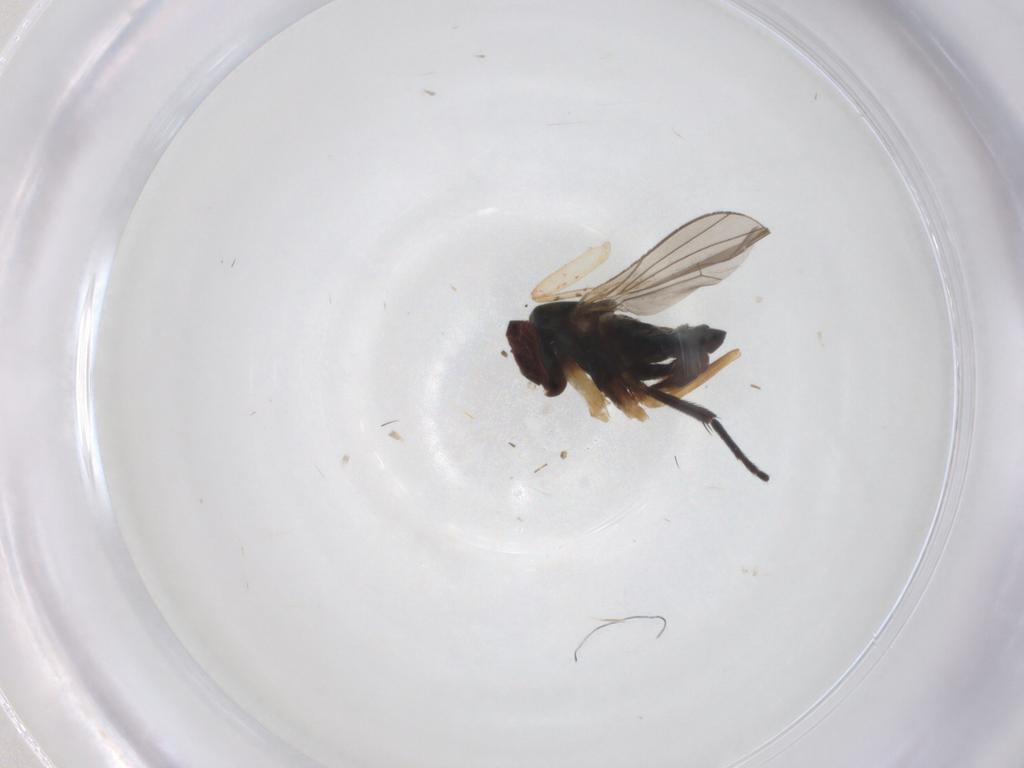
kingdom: Animalia
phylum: Arthropoda
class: Insecta
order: Diptera
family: Dolichopodidae
